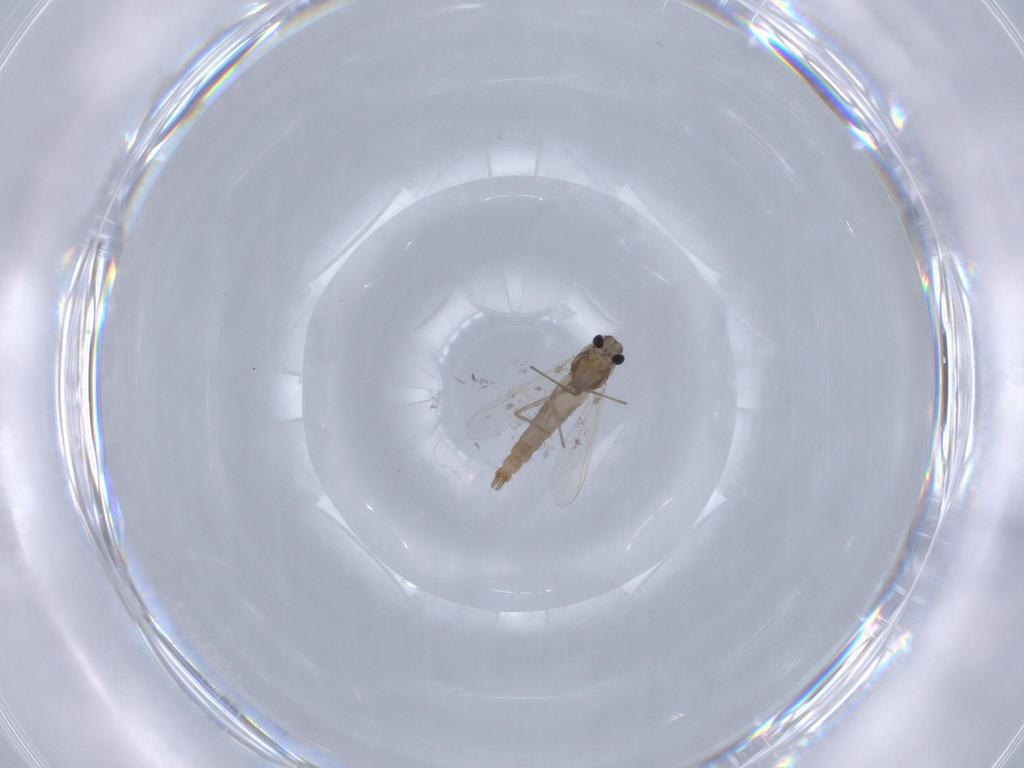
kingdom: Animalia
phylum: Arthropoda
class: Insecta
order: Diptera
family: Chironomidae
